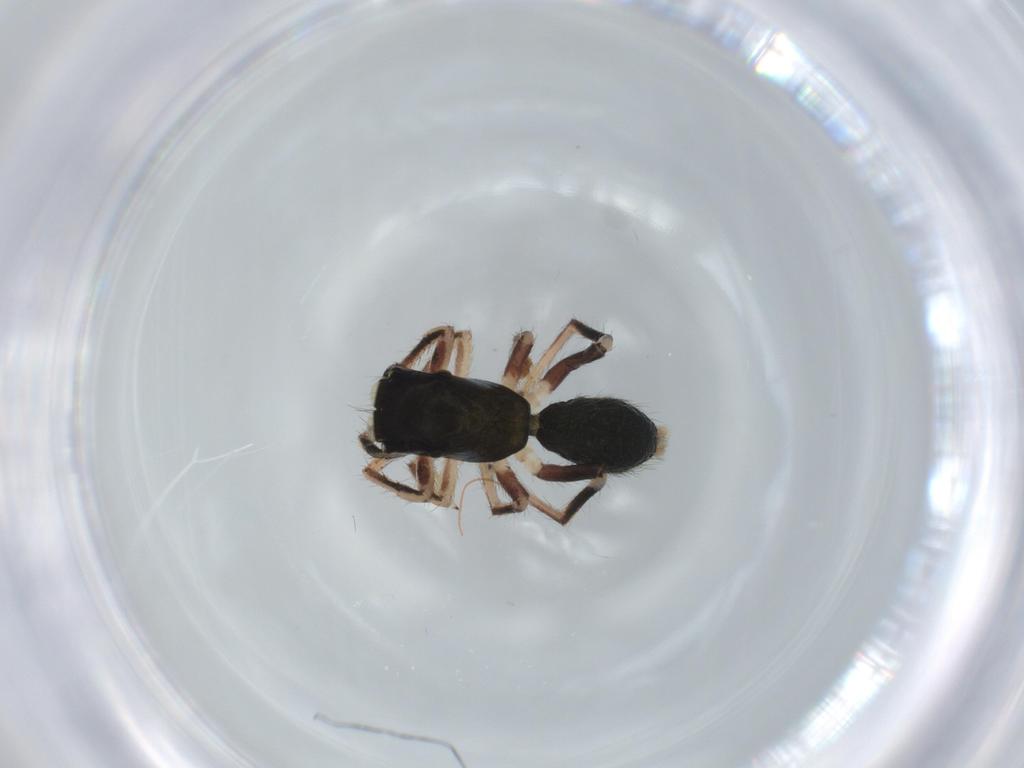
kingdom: Animalia
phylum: Arthropoda
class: Arachnida
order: Araneae
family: Salticidae
